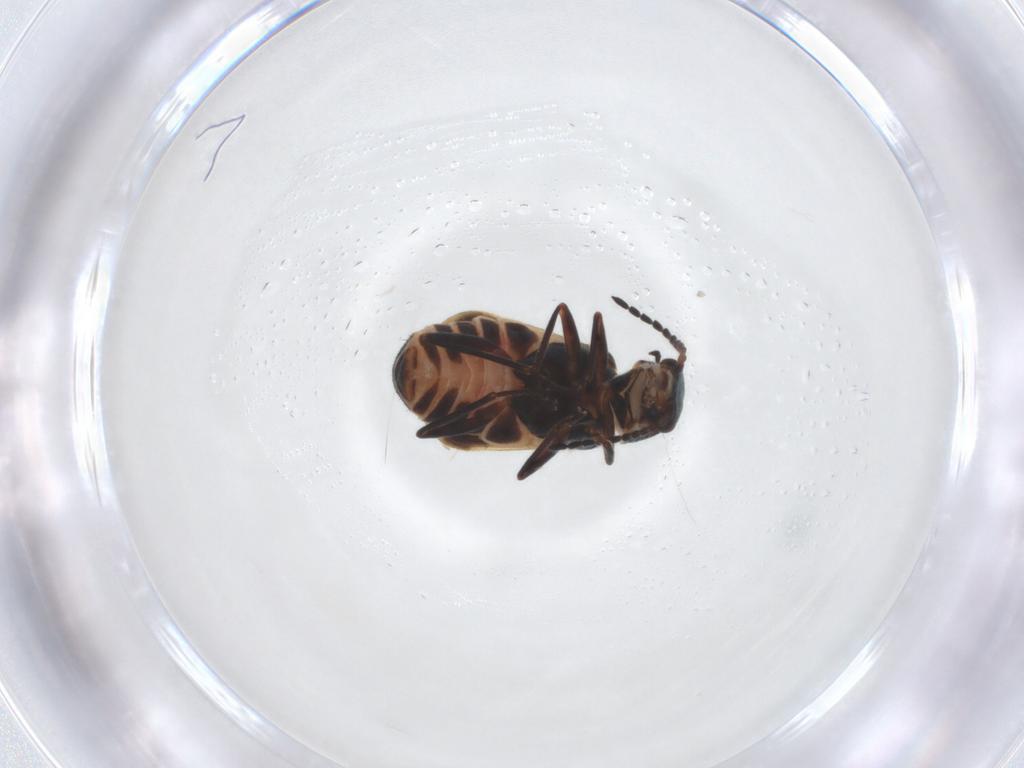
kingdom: Animalia
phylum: Arthropoda
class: Insecta
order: Coleoptera
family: Melyridae
